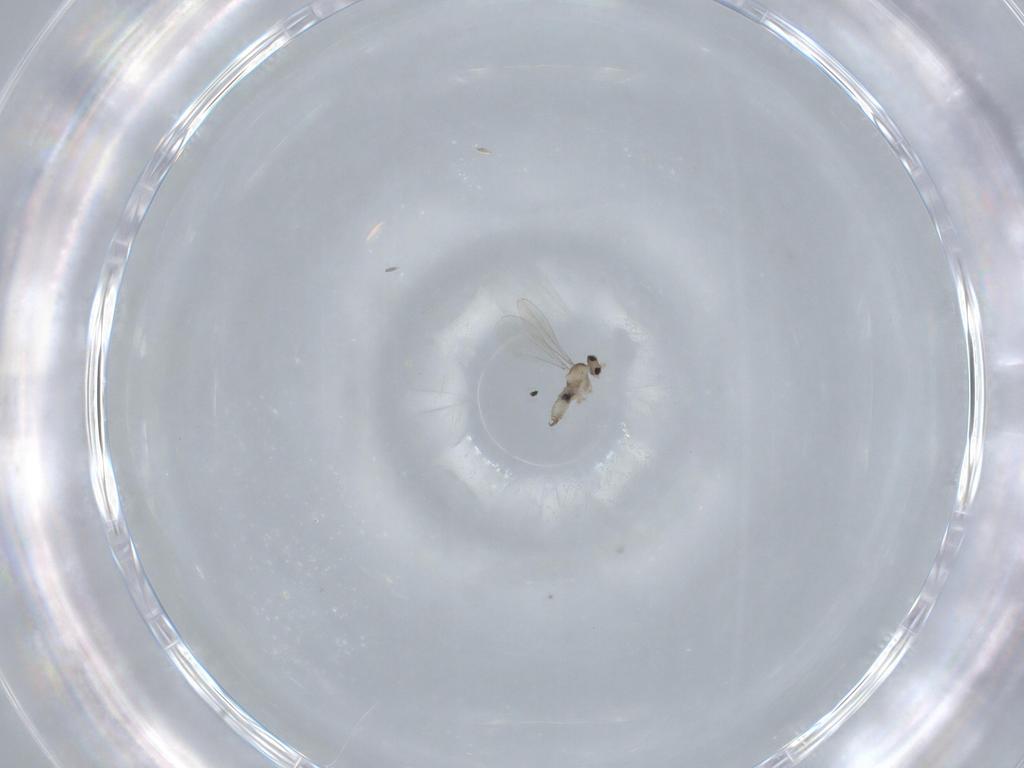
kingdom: Animalia
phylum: Arthropoda
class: Insecta
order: Diptera
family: Cecidomyiidae
